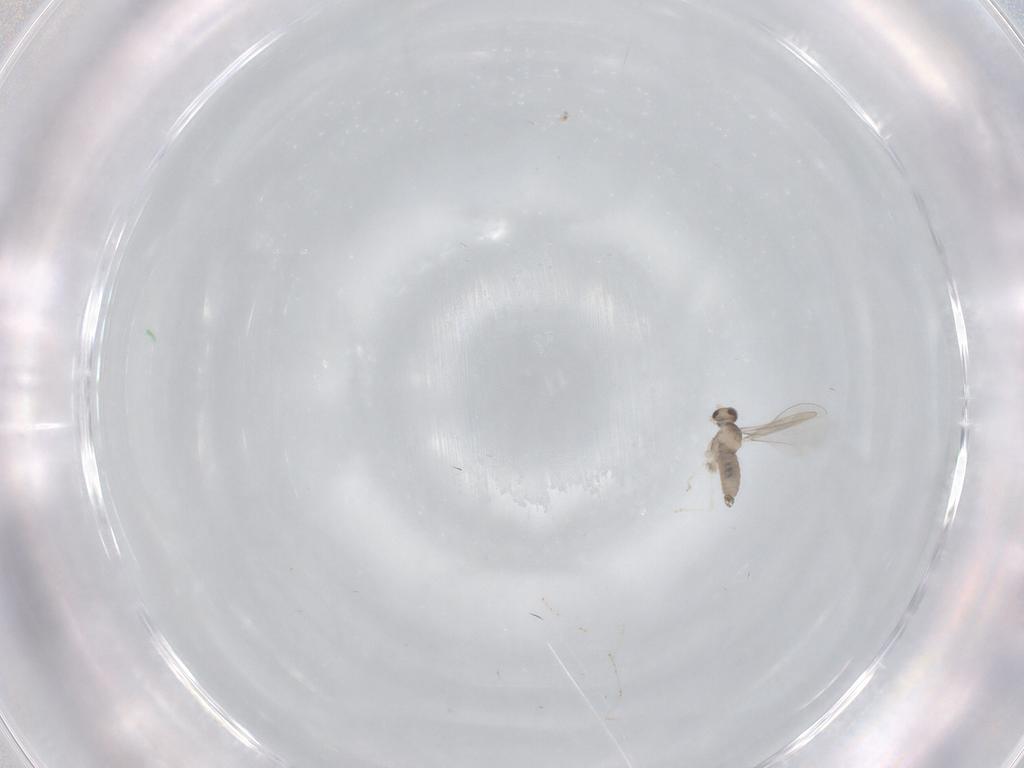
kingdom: Animalia
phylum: Arthropoda
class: Insecta
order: Diptera
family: Cecidomyiidae
